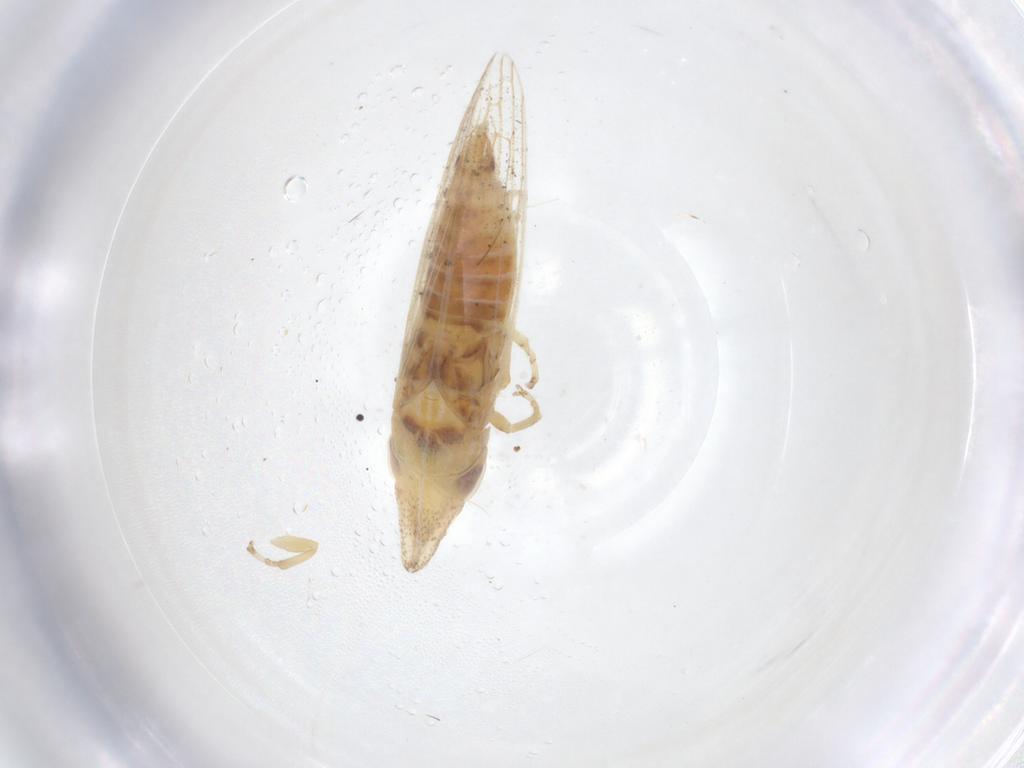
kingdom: Animalia
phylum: Arthropoda
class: Insecta
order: Hemiptera
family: Cicadellidae
